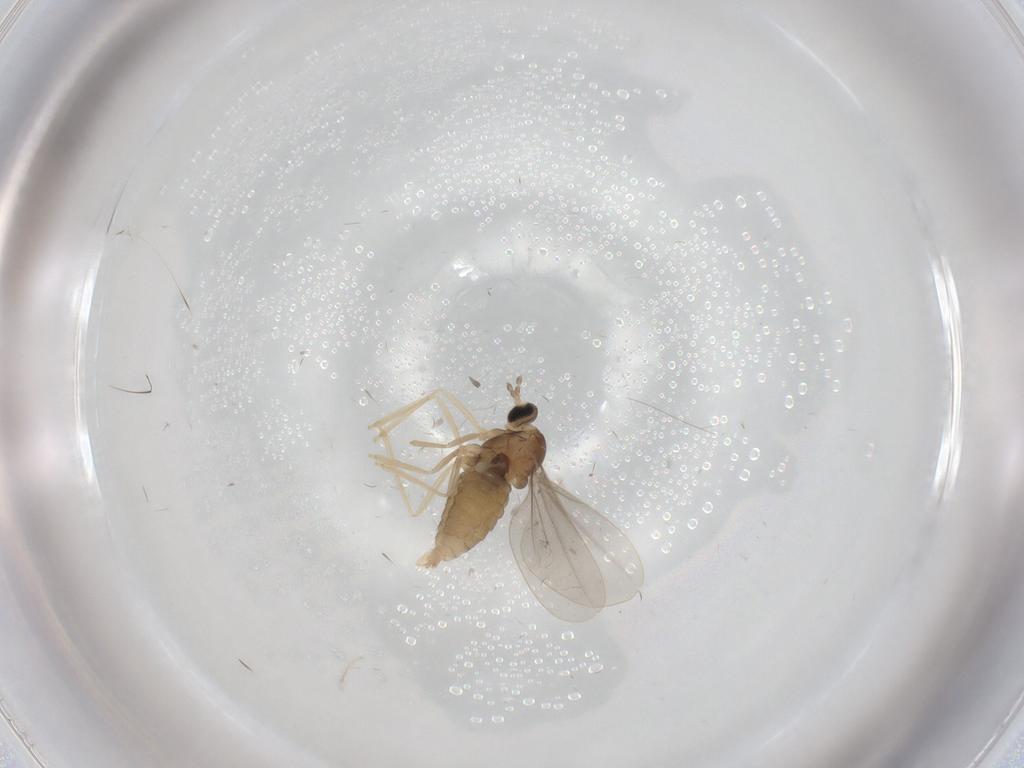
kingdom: Animalia
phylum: Arthropoda
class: Insecta
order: Diptera
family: Cecidomyiidae
